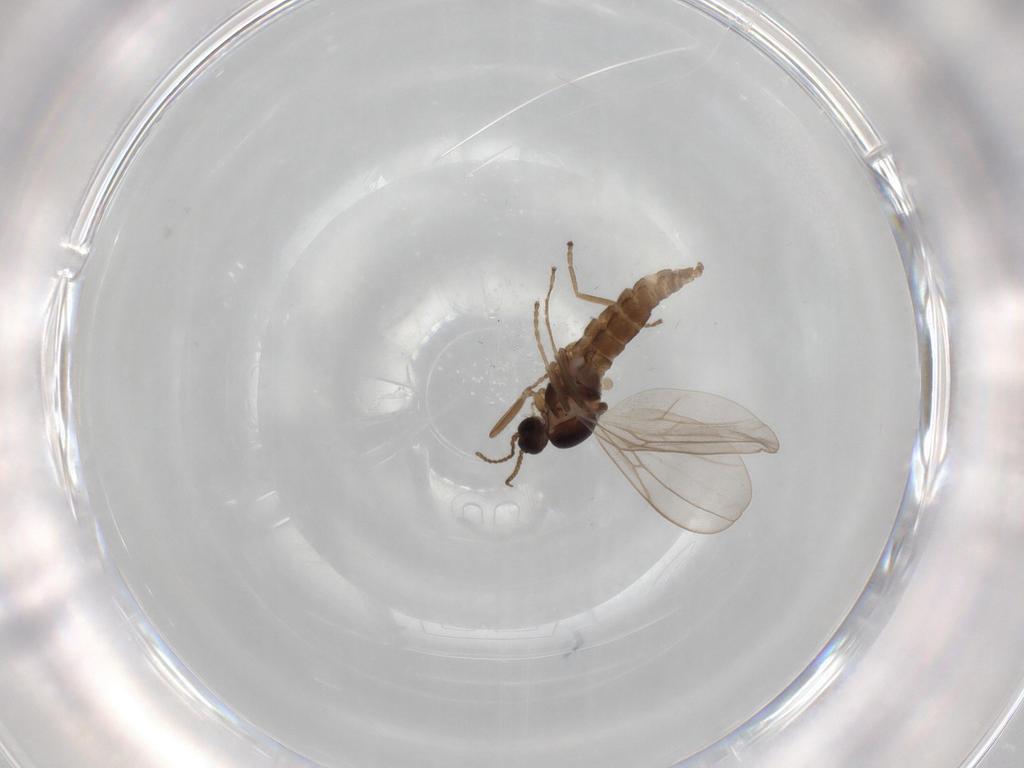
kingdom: Animalia
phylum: Arthropoda
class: Insecta
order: Diptera
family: Cecidomyiidae
